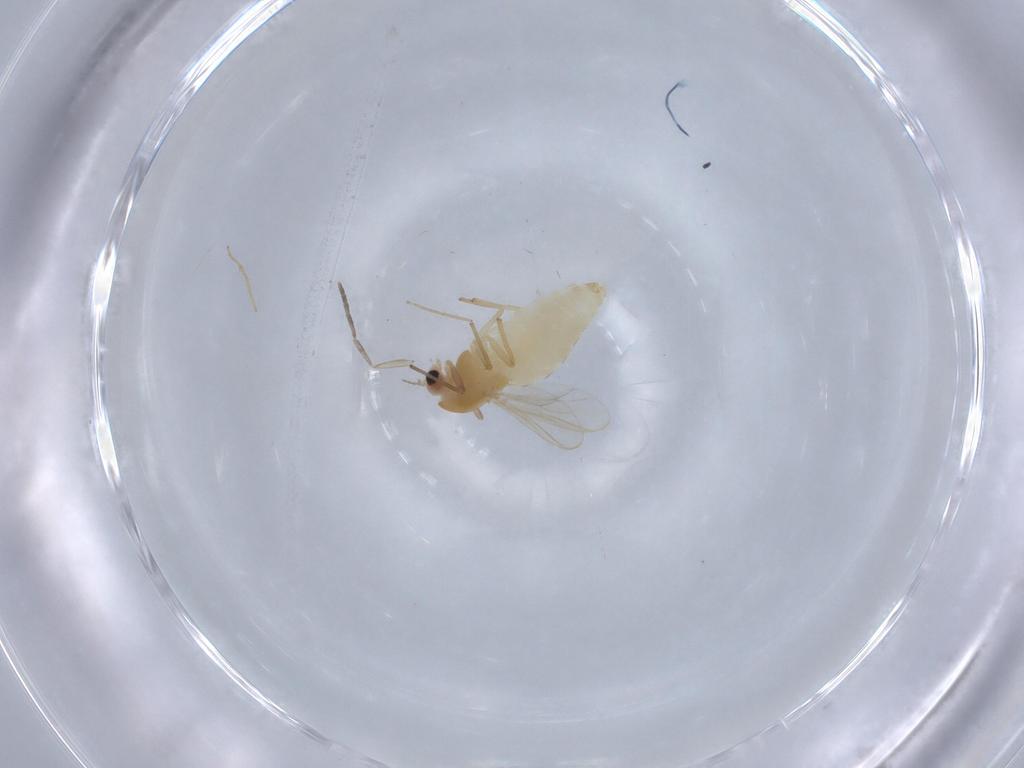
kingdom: Animalia
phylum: Arthropoda
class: Insecta
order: Diptera
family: Chironomidae
